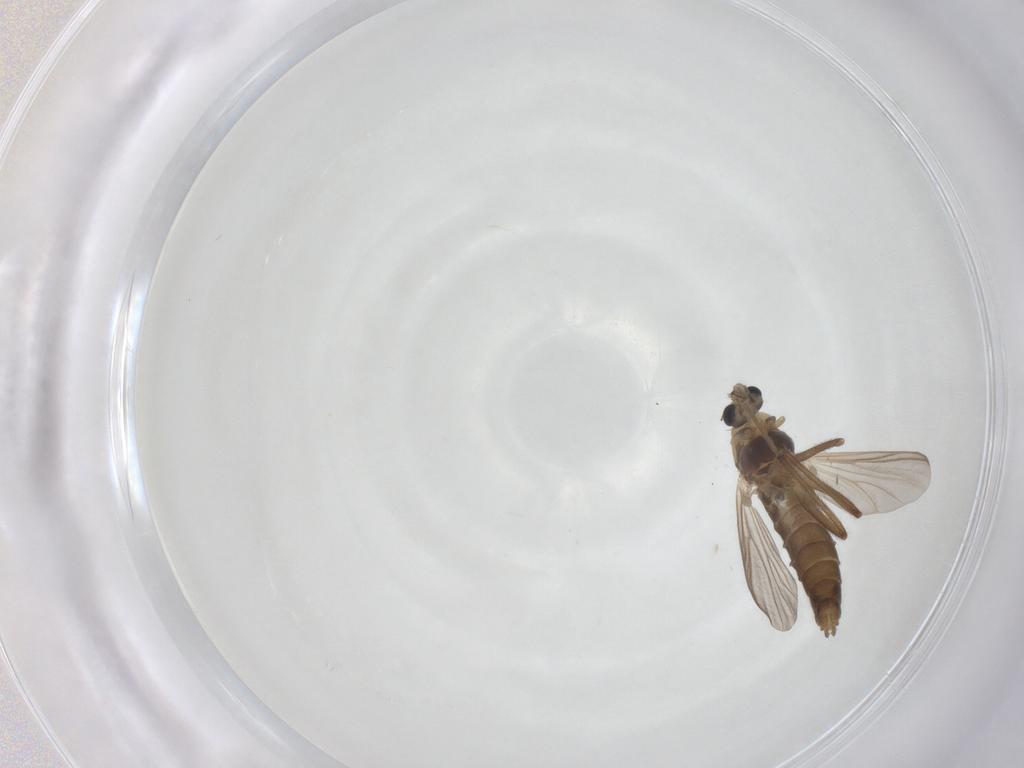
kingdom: Animalia
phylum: Arthropoda
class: Insecta
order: Diptera
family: Chironomidae
